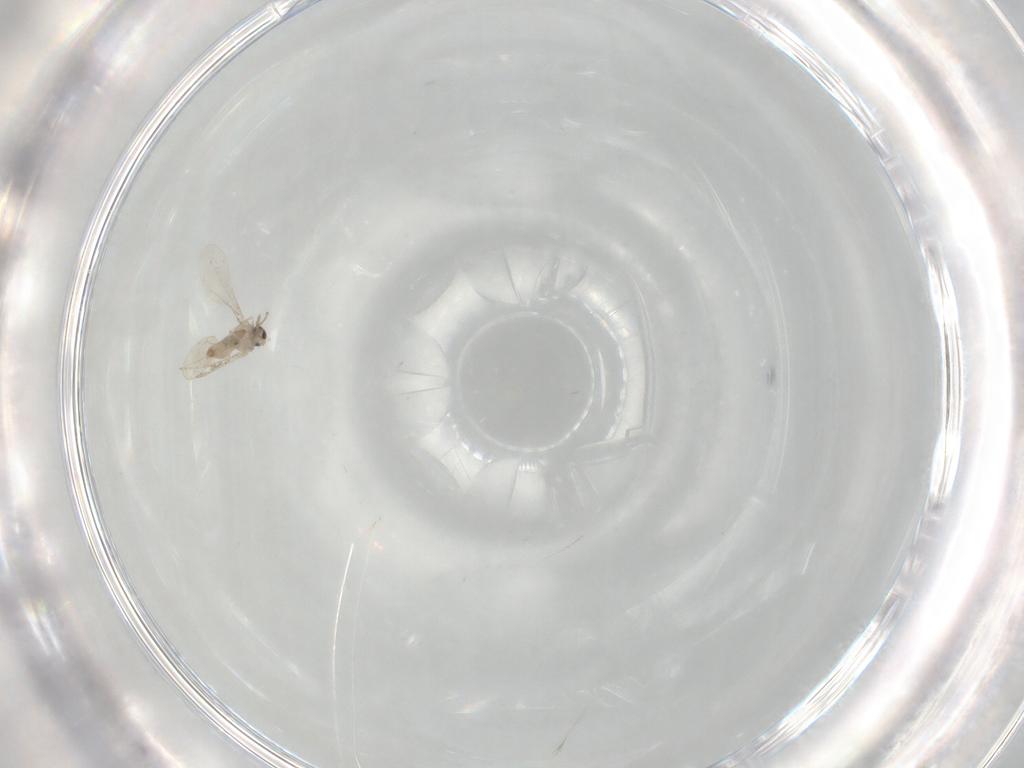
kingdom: Animalia
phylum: Arthropoda
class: Insecta
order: Diptera
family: Cecidomyiidae
